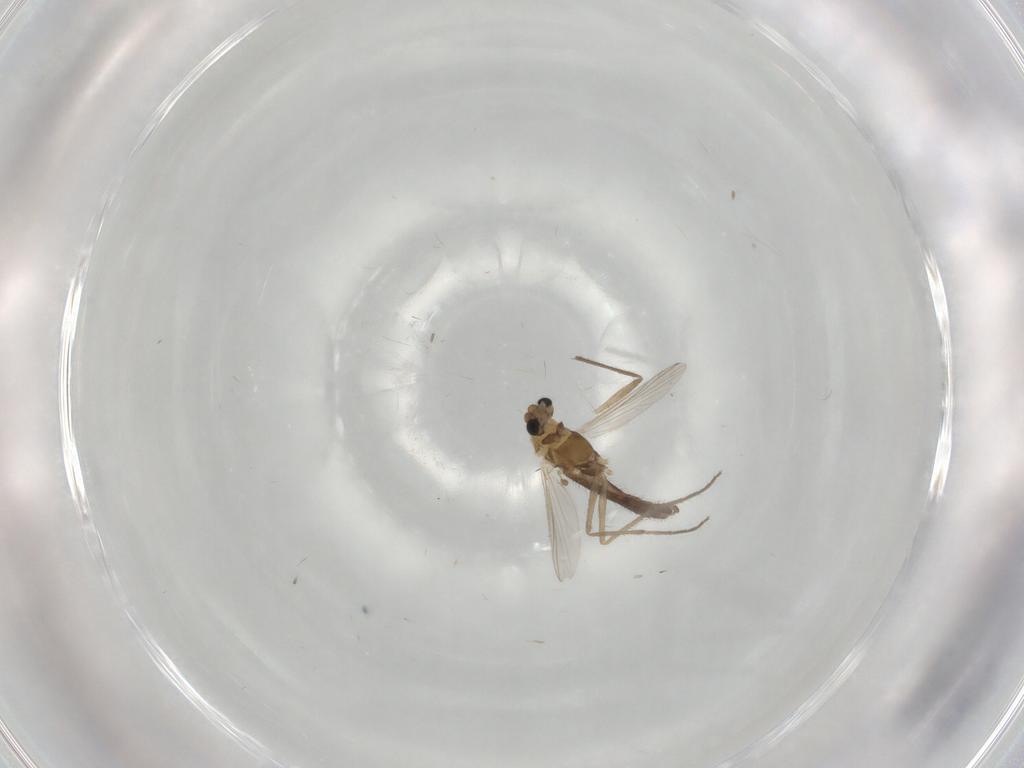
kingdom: Animalia
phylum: Arthropoda
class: Insecta
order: Diptera
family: Chironomidae
